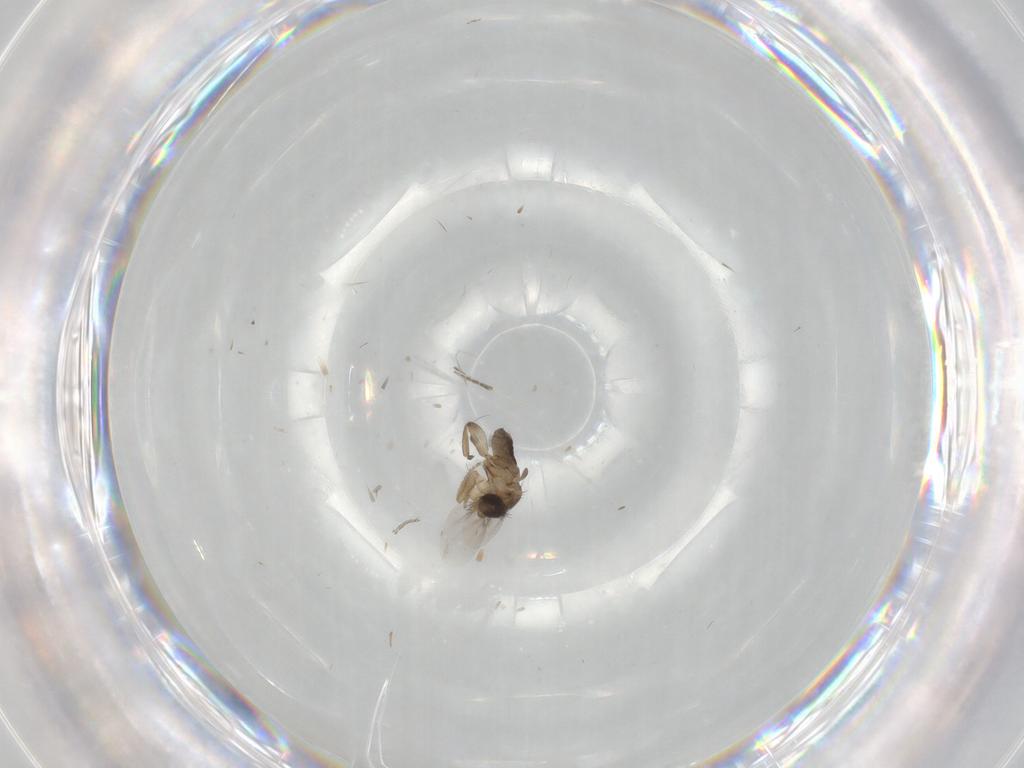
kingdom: Animalia
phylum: Arthropoda
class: Insecta
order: Diptera
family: Phoridae
